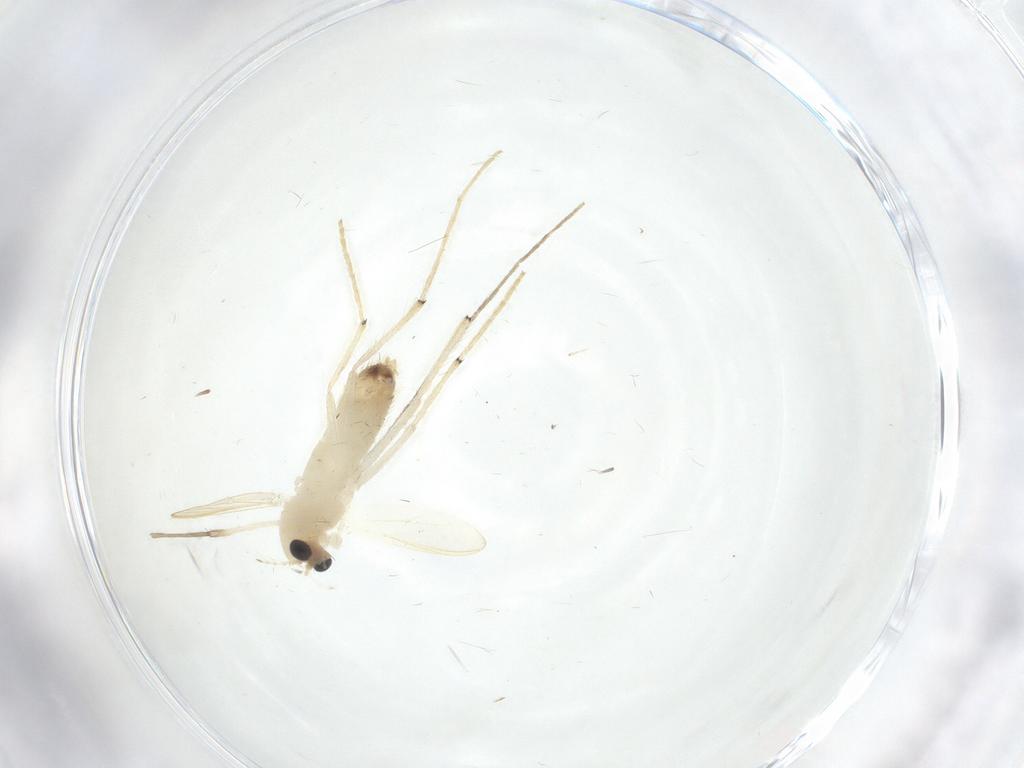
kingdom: Animalia
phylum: Arthropoda
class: Insecta
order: Diptera
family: Chironomidae
